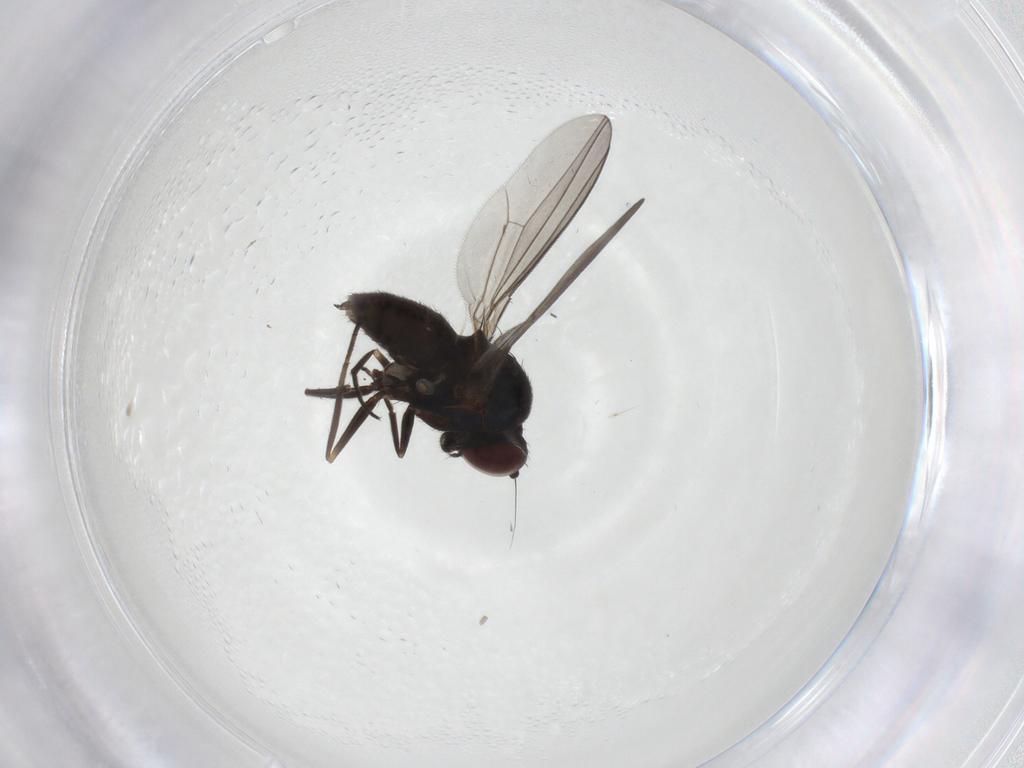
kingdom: Animalia
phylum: Arthropoda
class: Insecta
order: Diptera
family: Dolichopodidae
